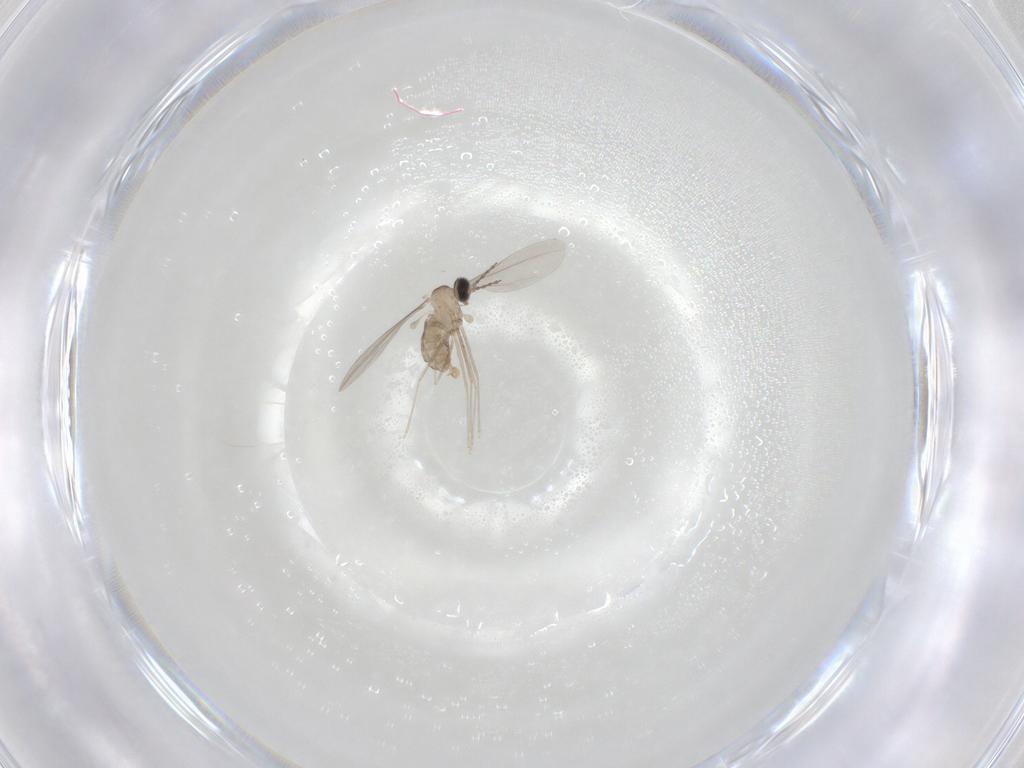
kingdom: Animalia
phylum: Arthropoda
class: Insecta
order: Diptera
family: Cecidomyiidae
